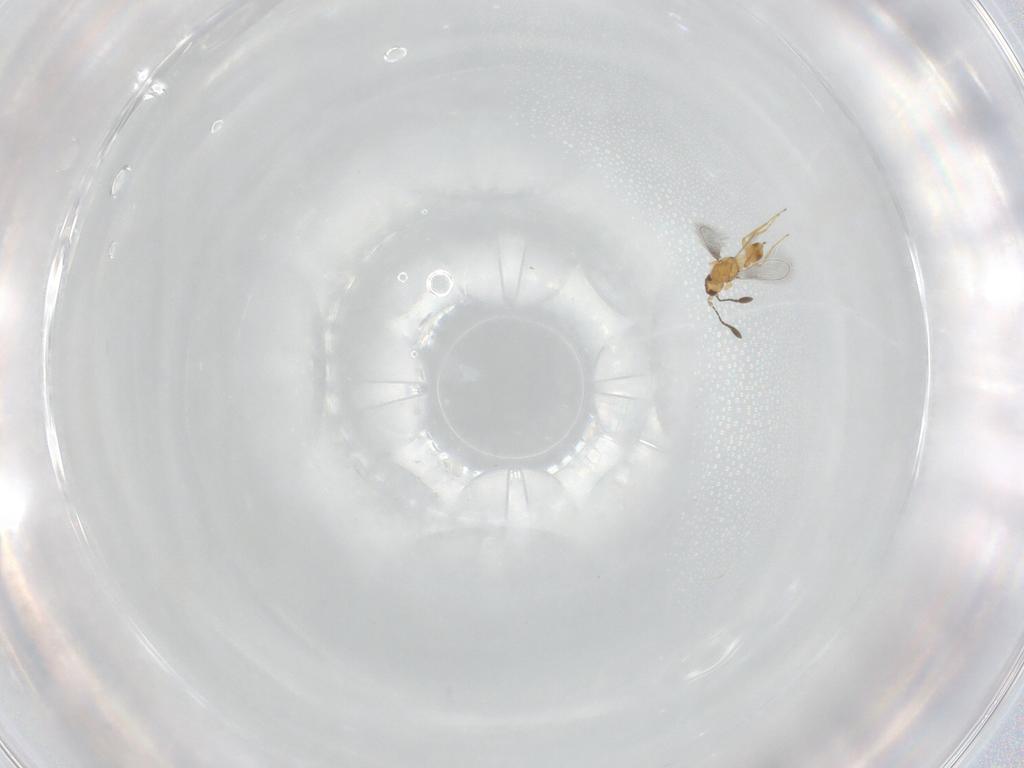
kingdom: Animalia
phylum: Arthropoda
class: Insecta
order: Hymenoptera
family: Mymaridae
